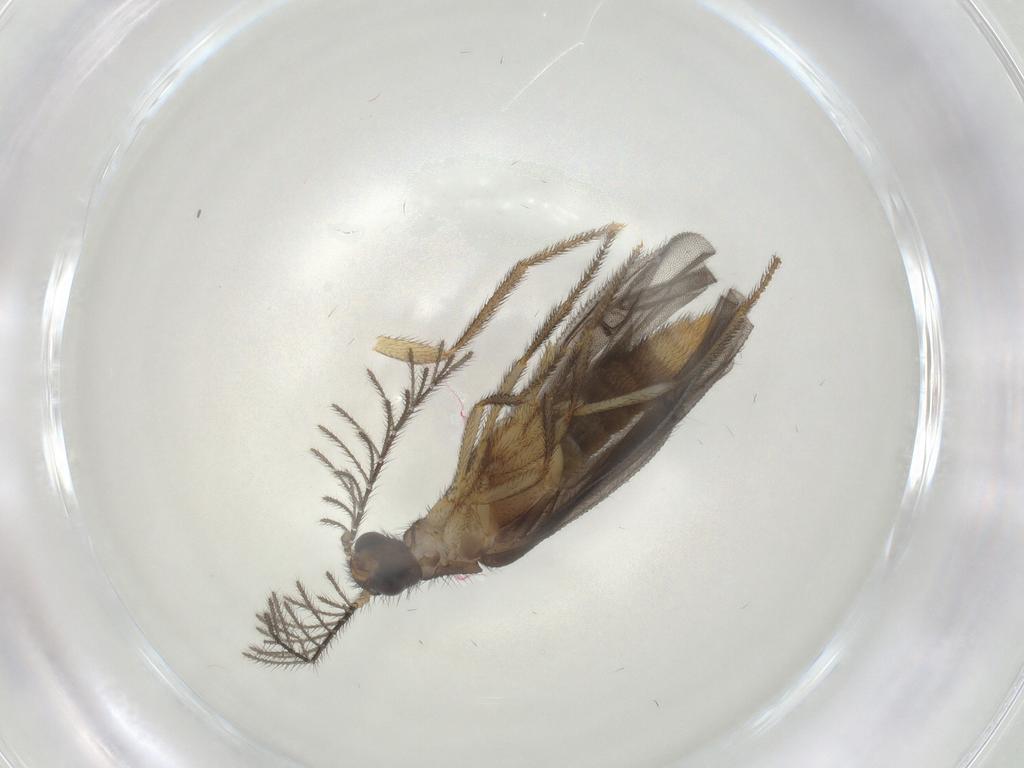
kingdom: Animalia
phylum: Arthropoda
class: Insecta
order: Coleoptera
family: Phengodidae
